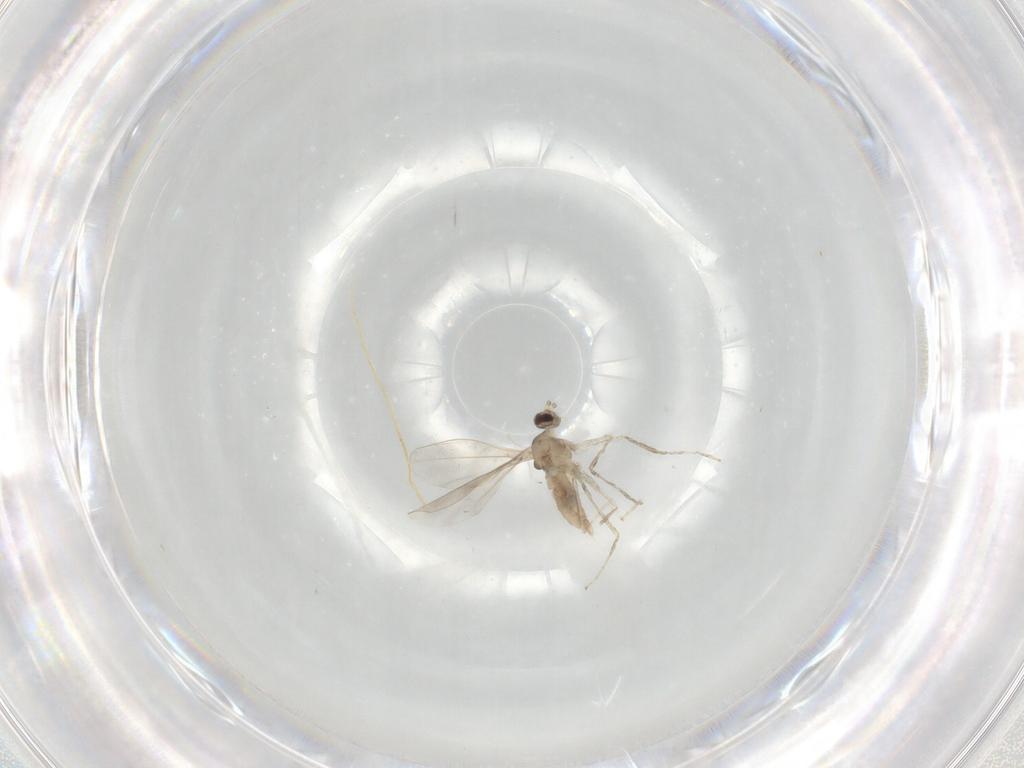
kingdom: Animalia
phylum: Arthropoda
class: Insecta
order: Diptera
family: Cecidomyiidae
